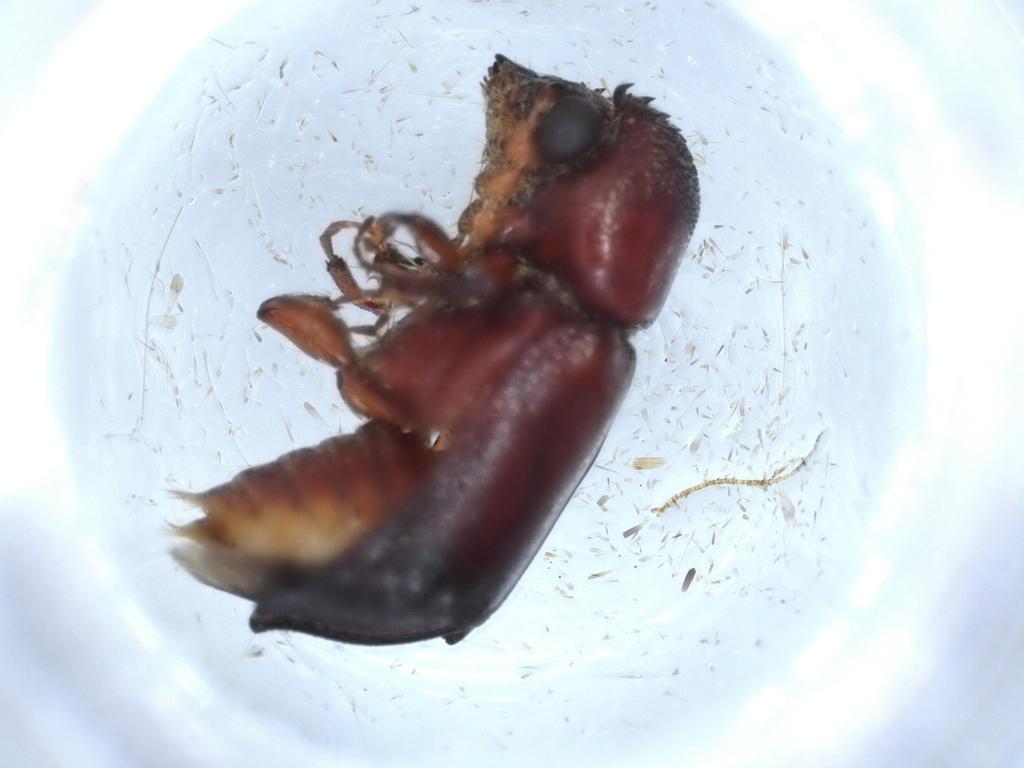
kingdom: Animalia
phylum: Arthropoda
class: Insecta
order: Coleoptera
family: Bostrichidae
